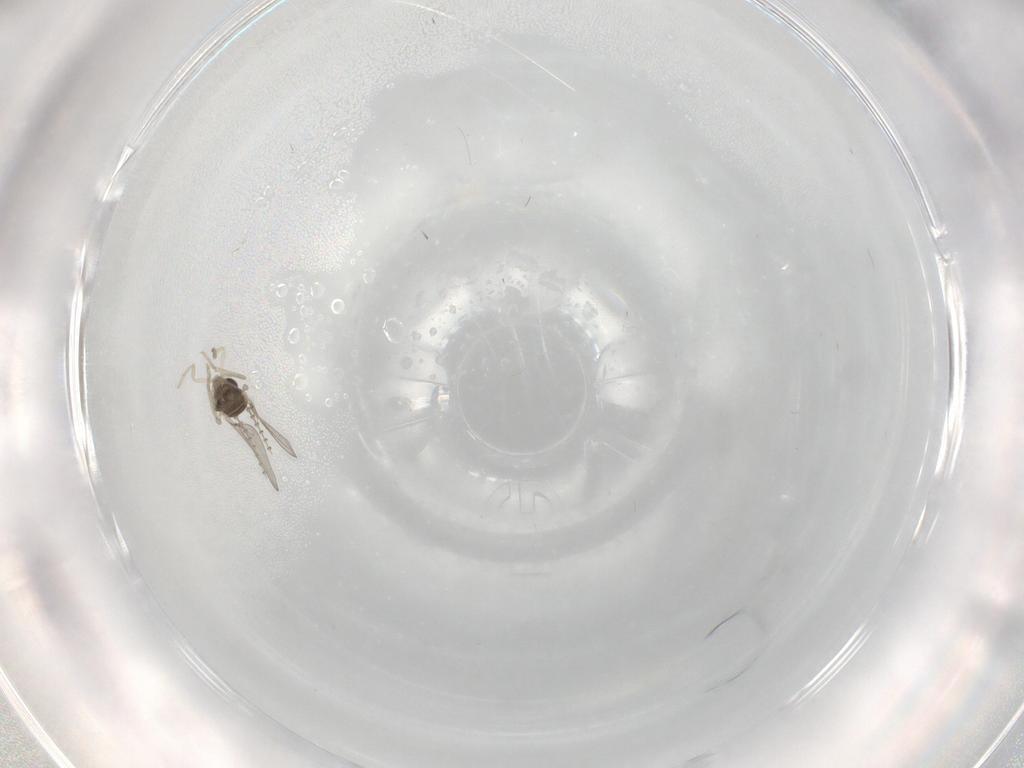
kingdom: Animalia
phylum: Arthropoda
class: Insecta
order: Diptera
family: Cecidomyiidae
